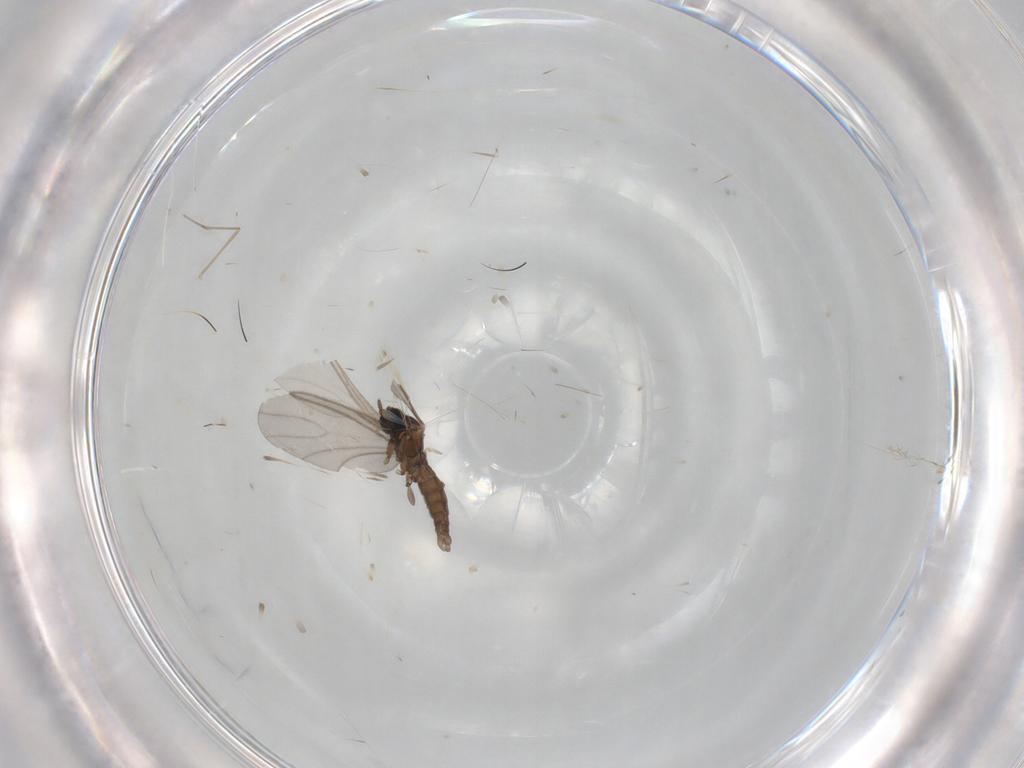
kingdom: Animalia
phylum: Arthropoda
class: Insecta
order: Diptera
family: Sciaridae
